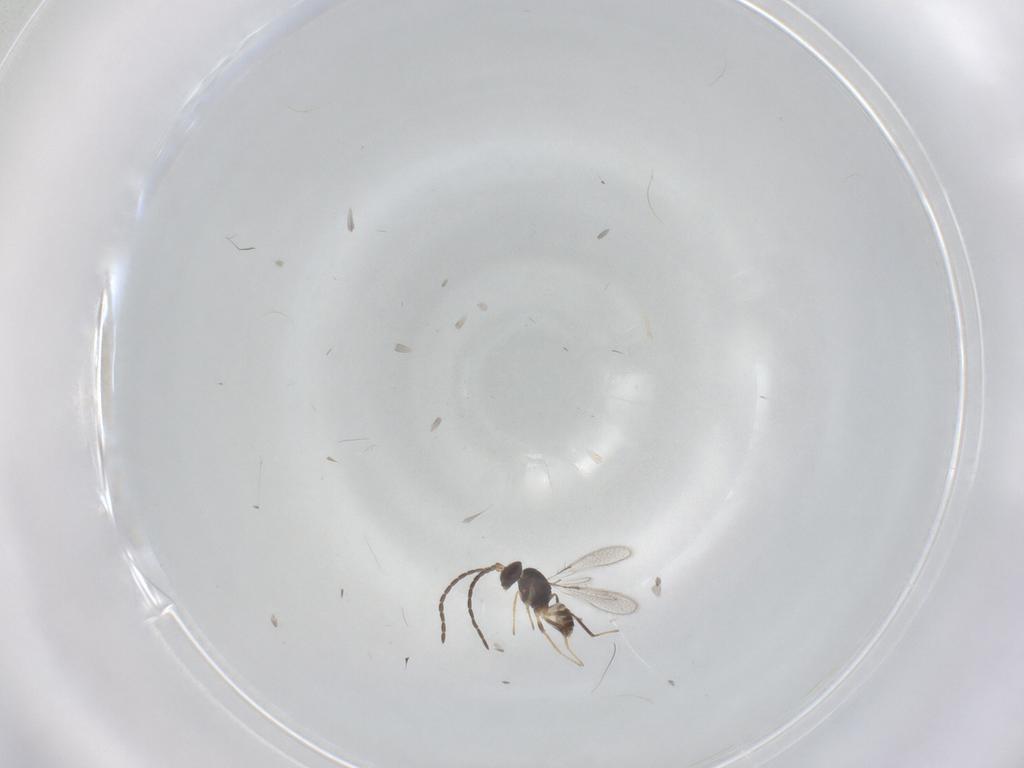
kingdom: Animalia
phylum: Arthropoda
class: Insecta
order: Hymenoptera
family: Mymaridae
